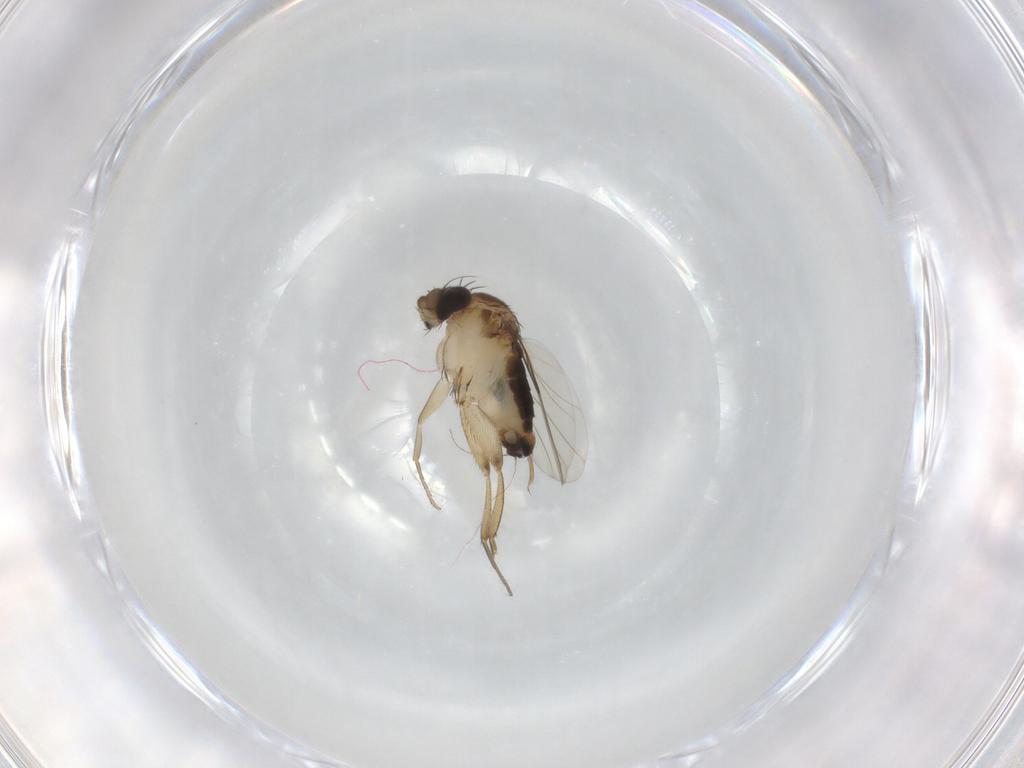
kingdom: Animalia
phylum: Arthropoda
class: Insecta
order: Diptera
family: Phoridae
